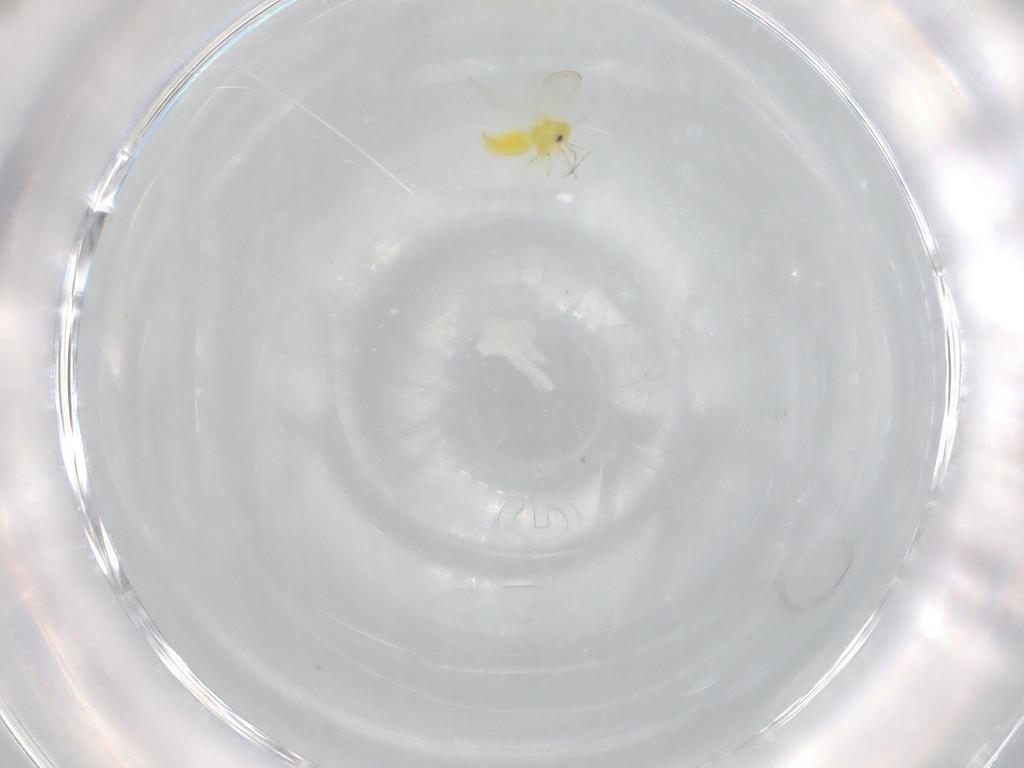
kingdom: Animalia
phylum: Arthropoda
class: Insecta
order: Hemiptera
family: Cicadellidae
